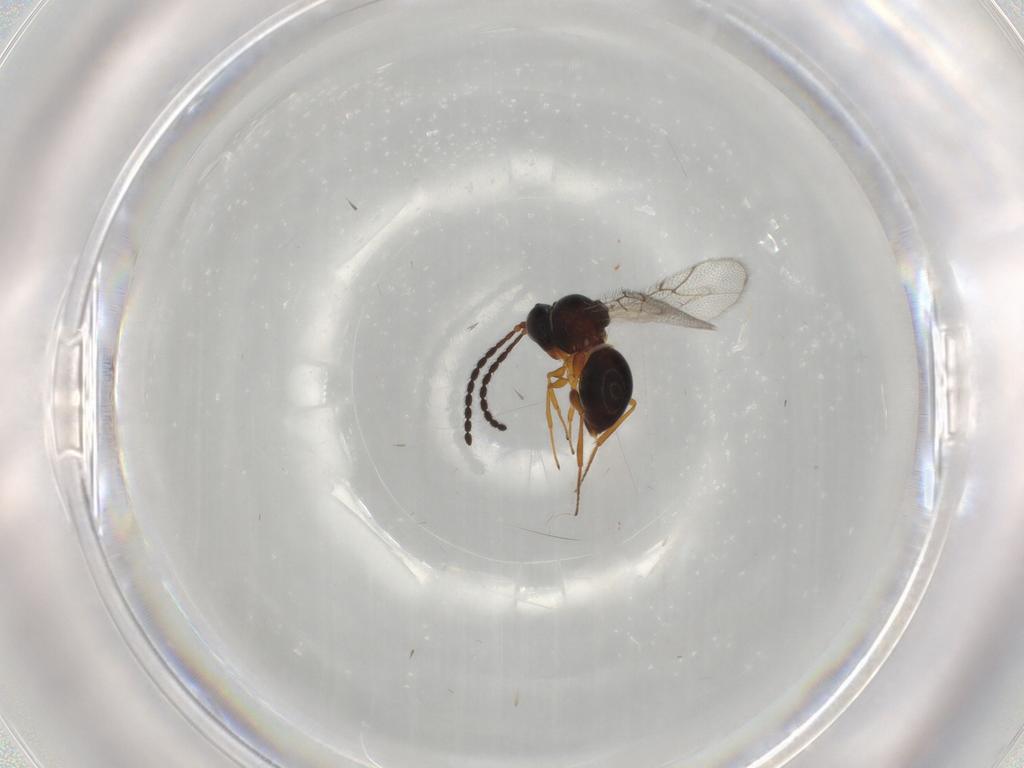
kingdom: Animalia
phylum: Arthropoda
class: Insecta
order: Hymenoptera
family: Figitidae
